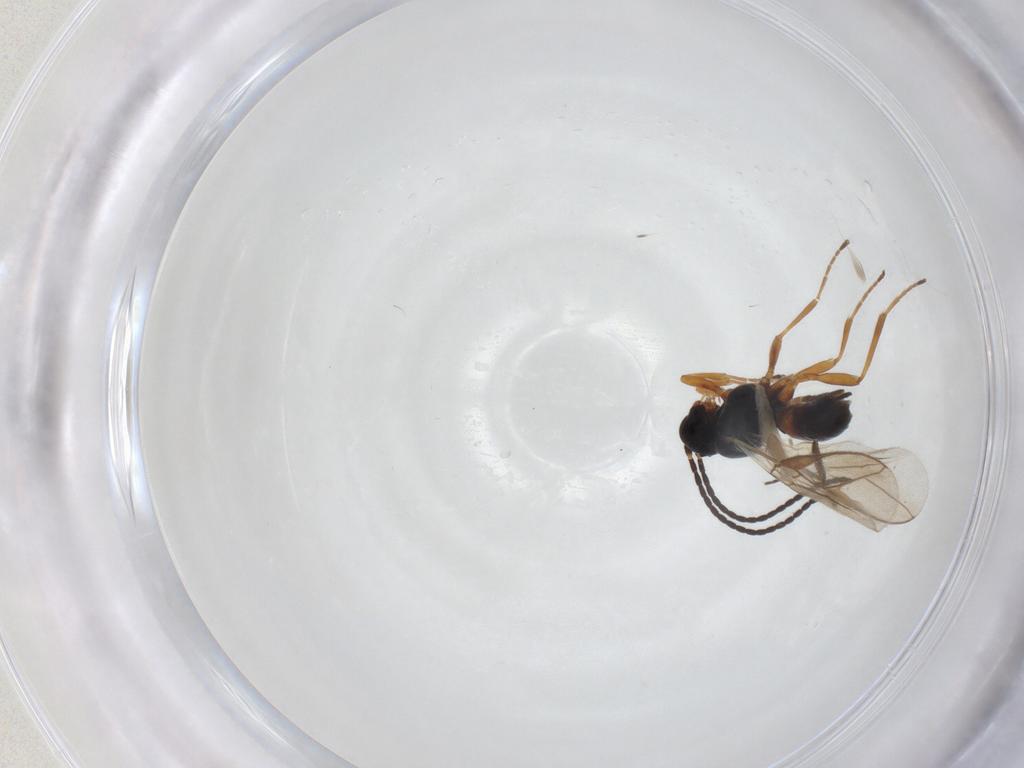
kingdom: Animalia
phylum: Arthropoda
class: Insecta
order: Hymenoptera
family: Braconidae
